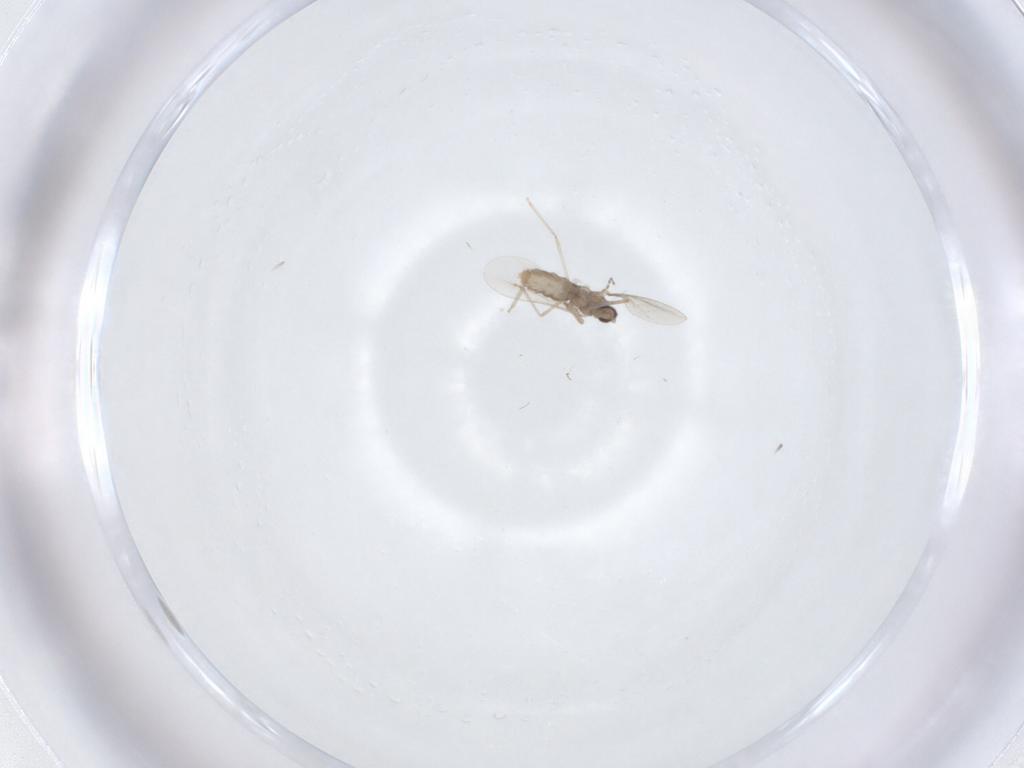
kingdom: Animalia
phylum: Arthropoda
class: Insecta
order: Diptera
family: Cecidomyiidae
